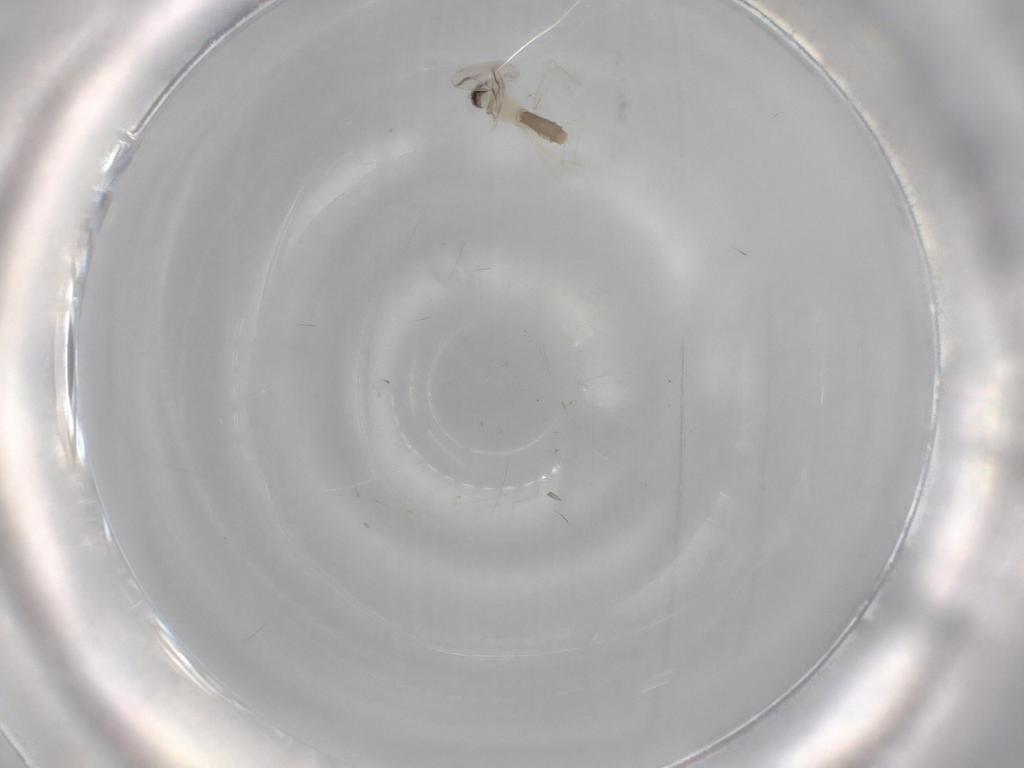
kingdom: Animalia
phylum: Arthropoda
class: Insecta
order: Diptera
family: Cecidomyiidae
